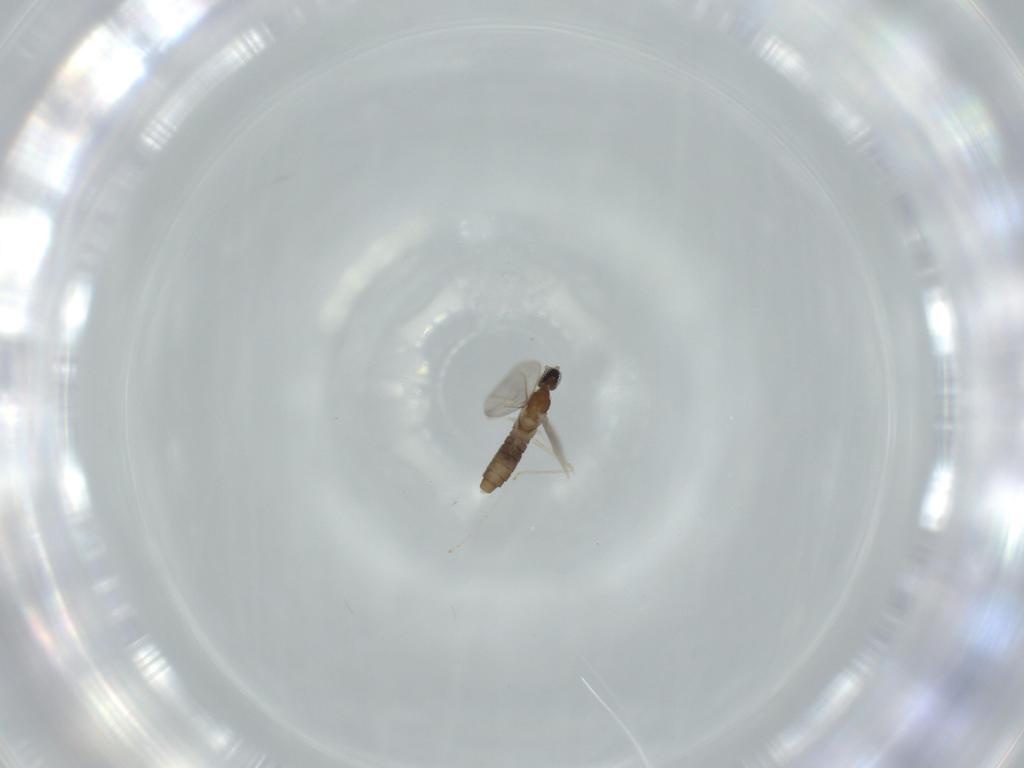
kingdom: Animalia
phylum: Arthropoda
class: Insecta
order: Diptera
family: Cecidomyiidae
